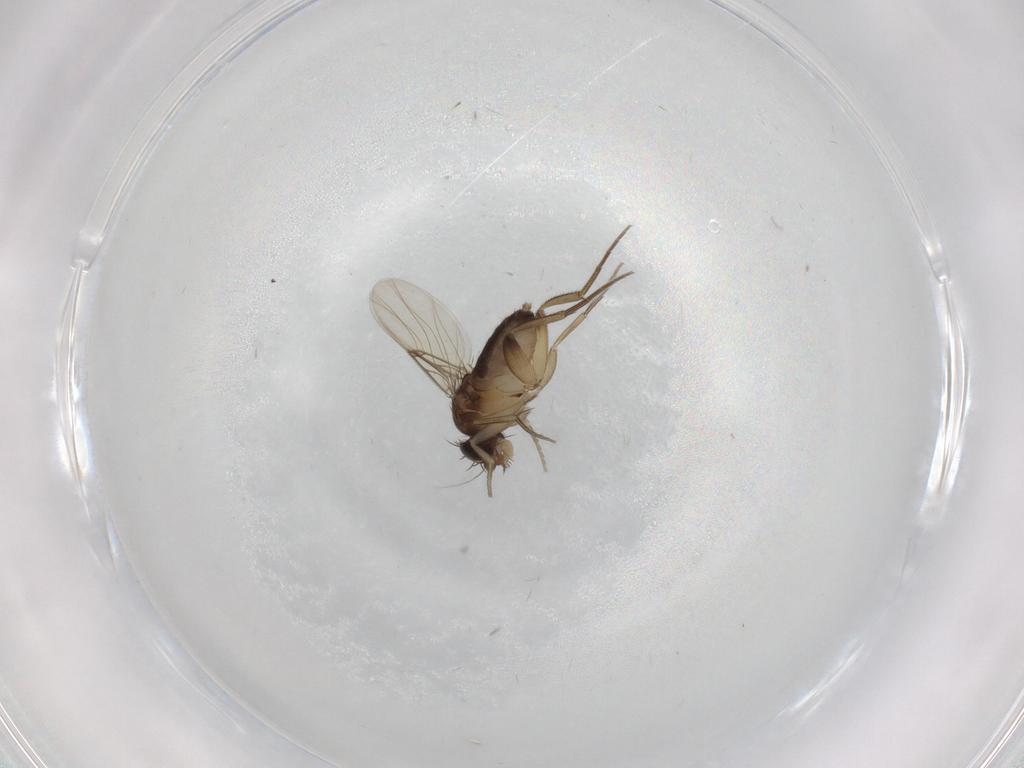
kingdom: Animalia
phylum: Arthropoda
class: Insecta
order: Diptera
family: Phoridae
